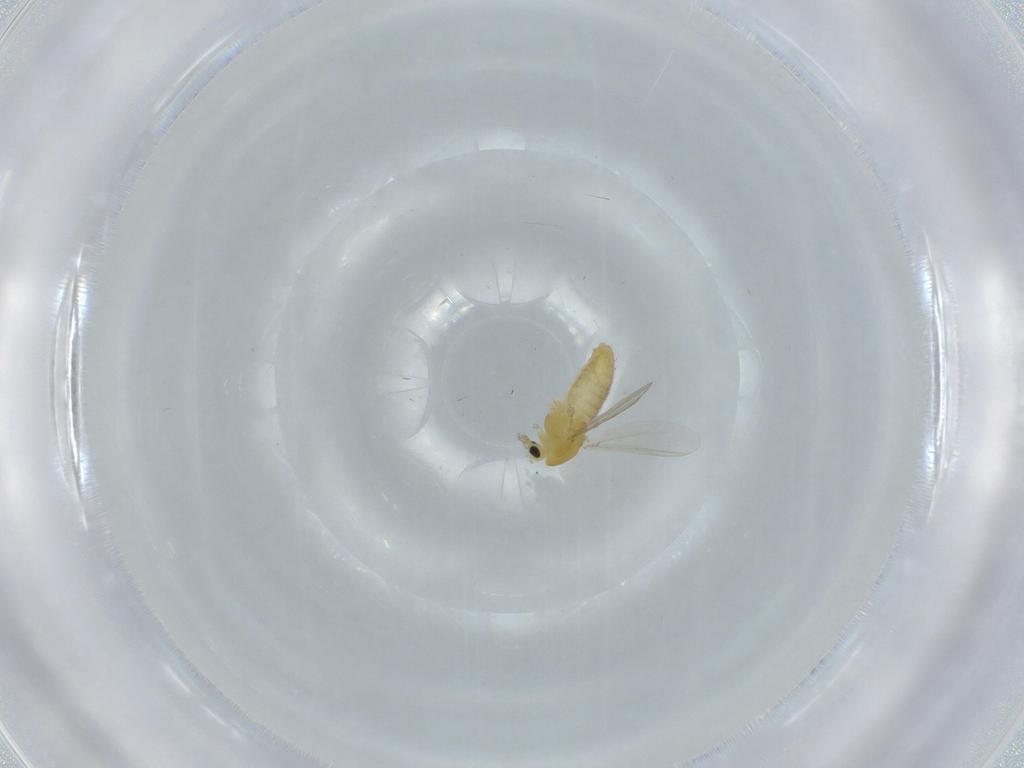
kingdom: Animalia
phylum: Arthropoda
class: Insecta
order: Diptera
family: Chironomidae
